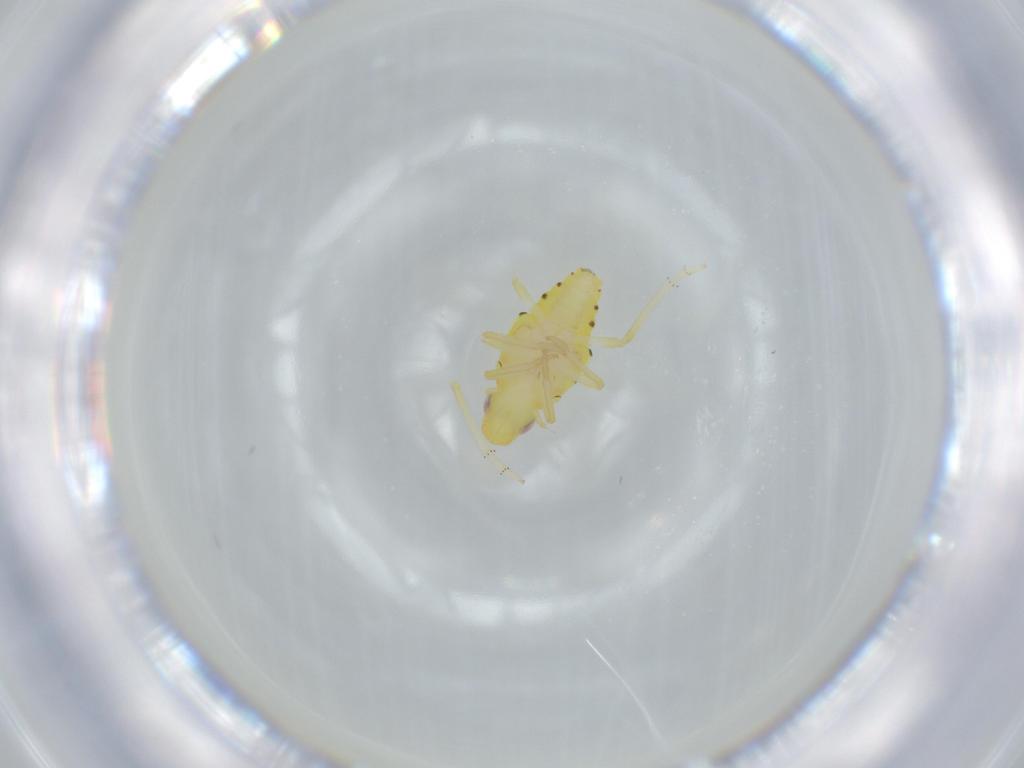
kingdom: Animalia
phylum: Arthropoda
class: Insecta
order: Hemiptera
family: Tropiduchidae
